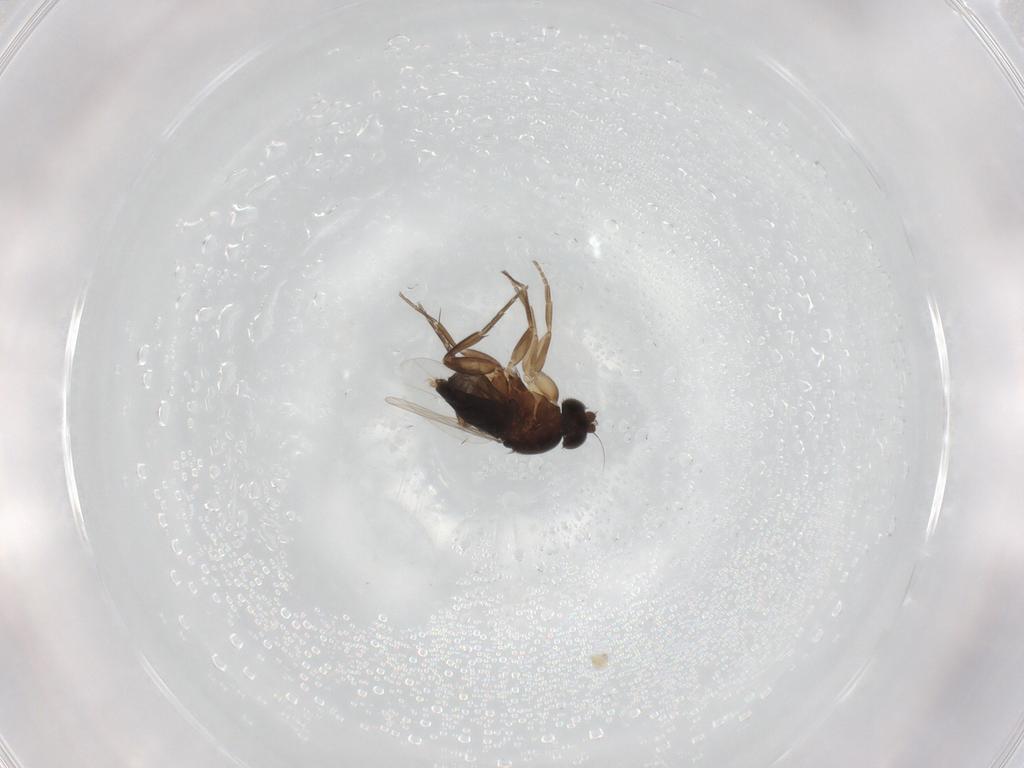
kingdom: Animalia
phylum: Arthropoda
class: Insecta
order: Diptera
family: Phoridae
